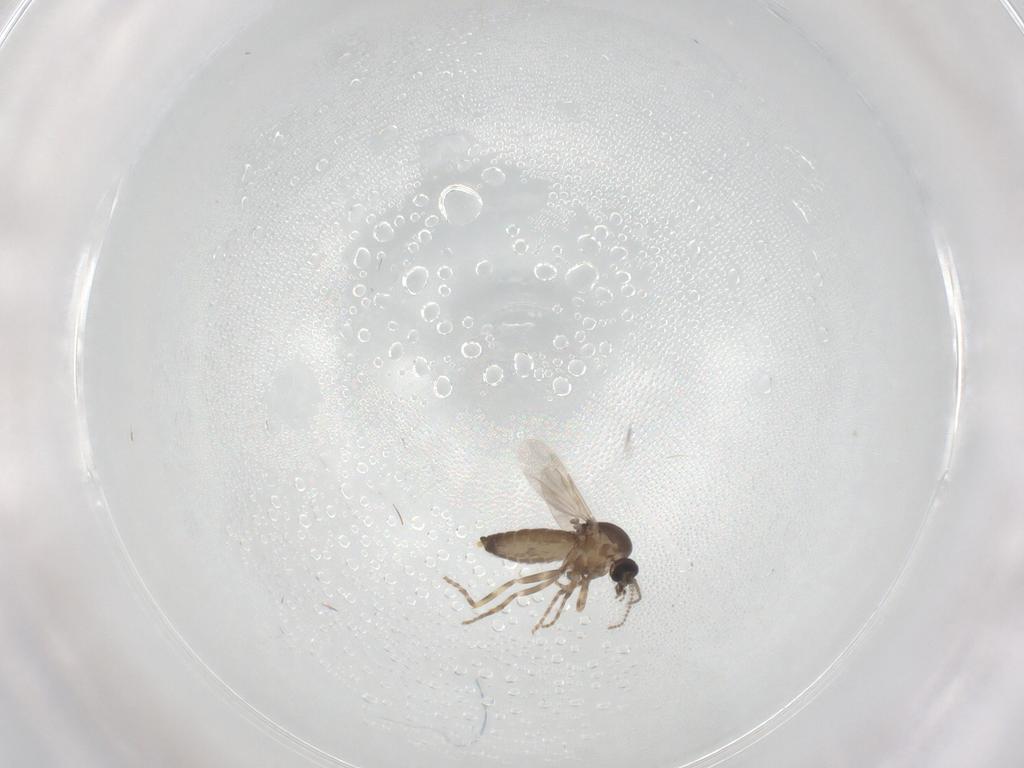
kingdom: Animalia
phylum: Arthropoda
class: Insecta
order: Diptera
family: Ceratopogonidae
